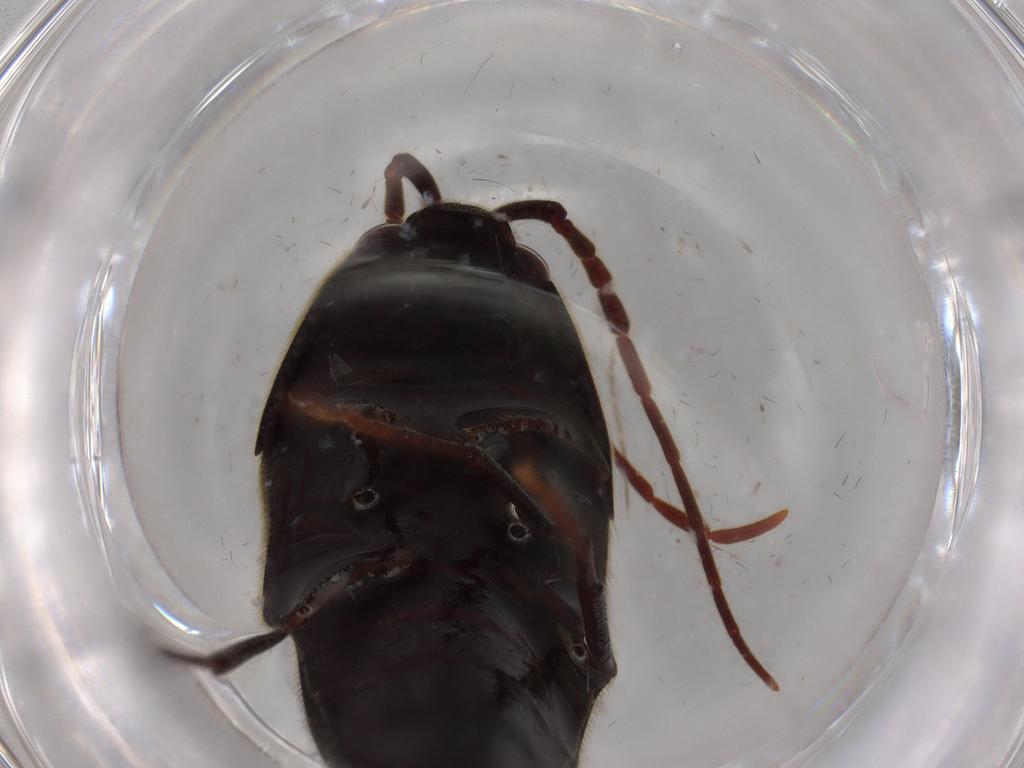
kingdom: Animalia
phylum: Arthropoda
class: Insecta
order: Coleoptera
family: Eucnemidae
